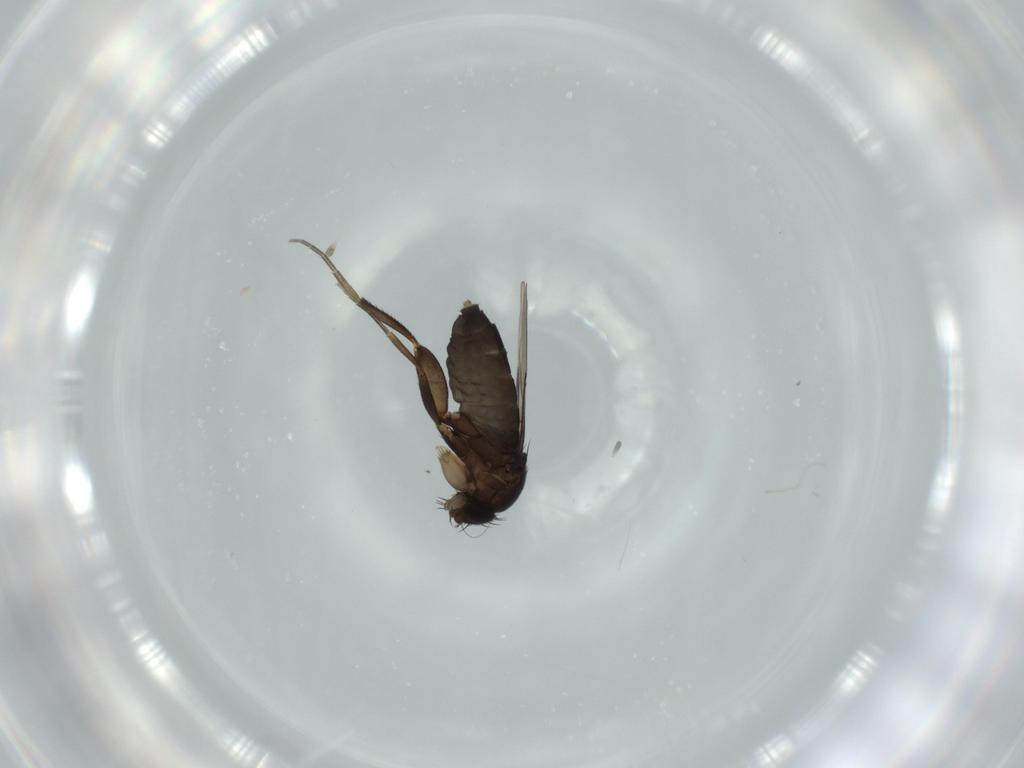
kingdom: Animalia
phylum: Arthropoda
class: Insecta
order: Diptera
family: Phoridae
